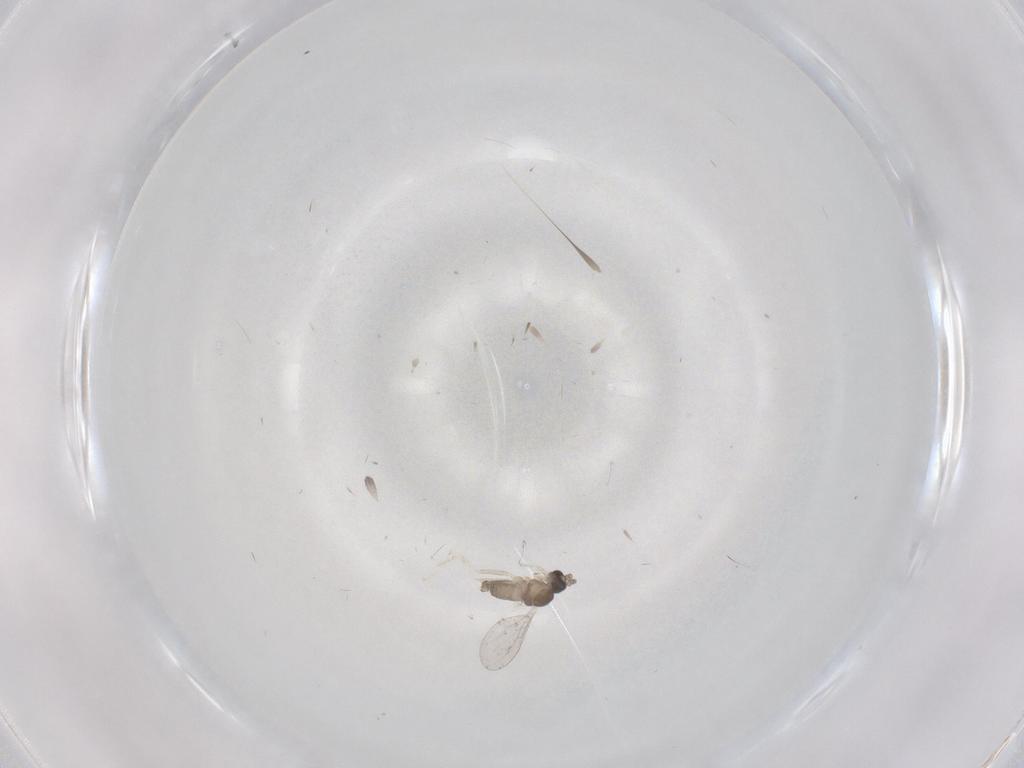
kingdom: Animalia
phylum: Arthropoda
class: Insecta
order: Diptera
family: Cecidomyiidae
